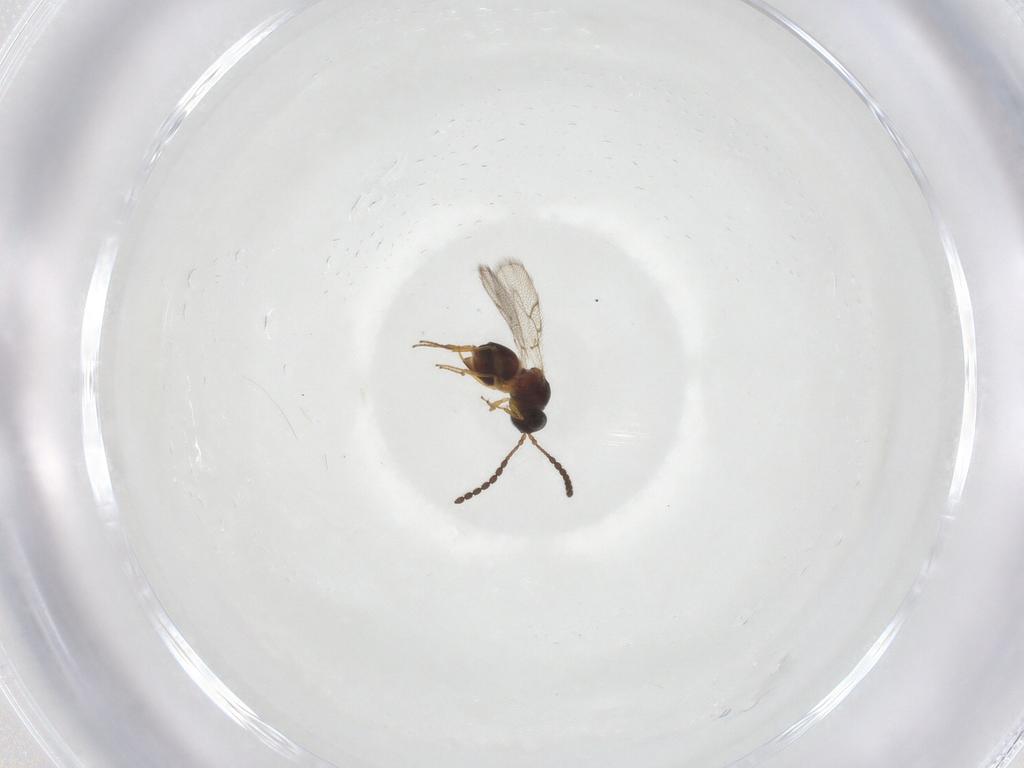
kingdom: Animalia
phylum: Arthropoda
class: Insecta
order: Hymenoptera
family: Figitidae
